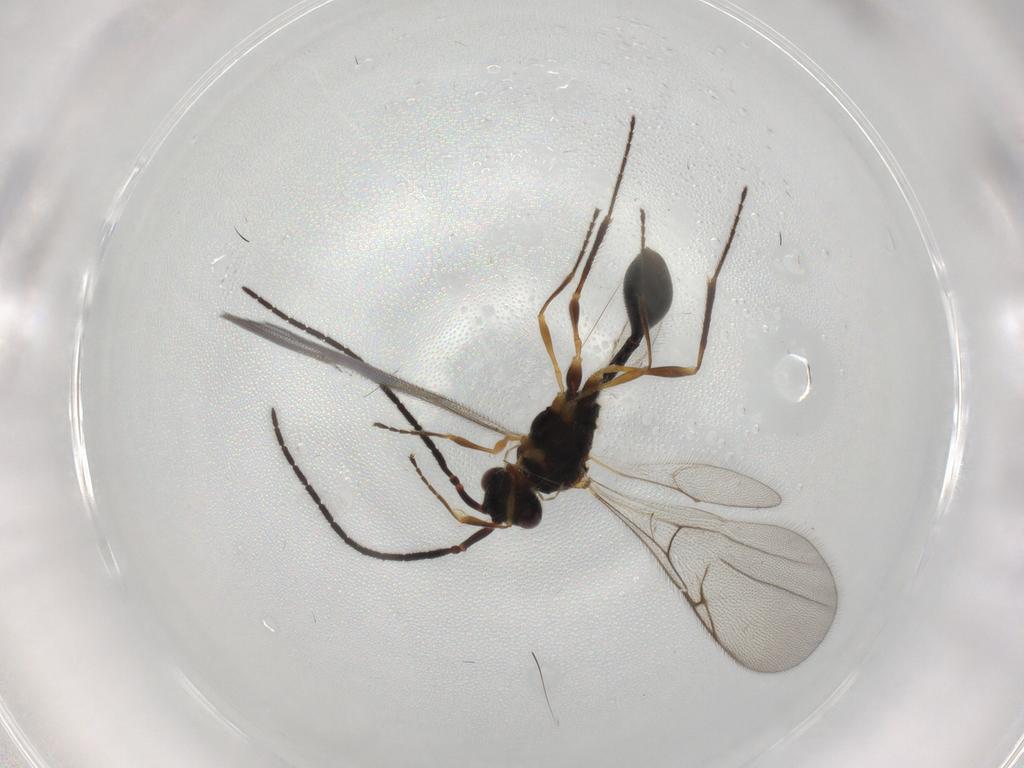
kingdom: Animalia
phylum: Arthropoda
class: Insecta
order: Hymenoptera
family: Diapriidae
